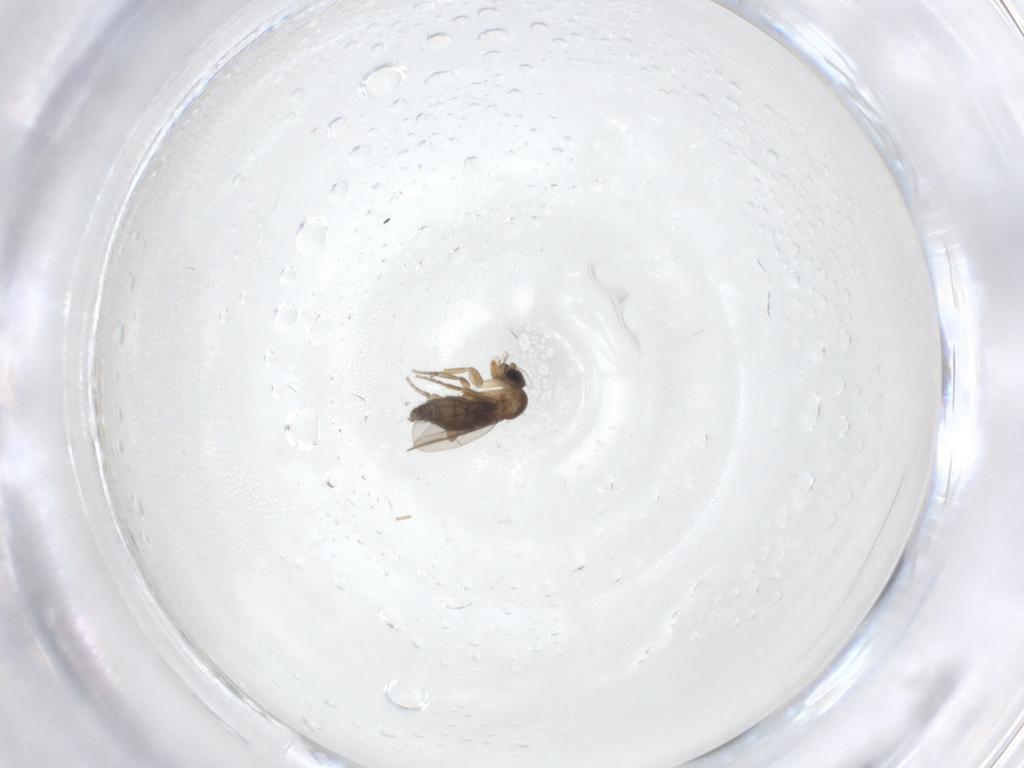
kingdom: Animalia
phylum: Arthropoda
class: Insecta
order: Diptera
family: Phoridae
